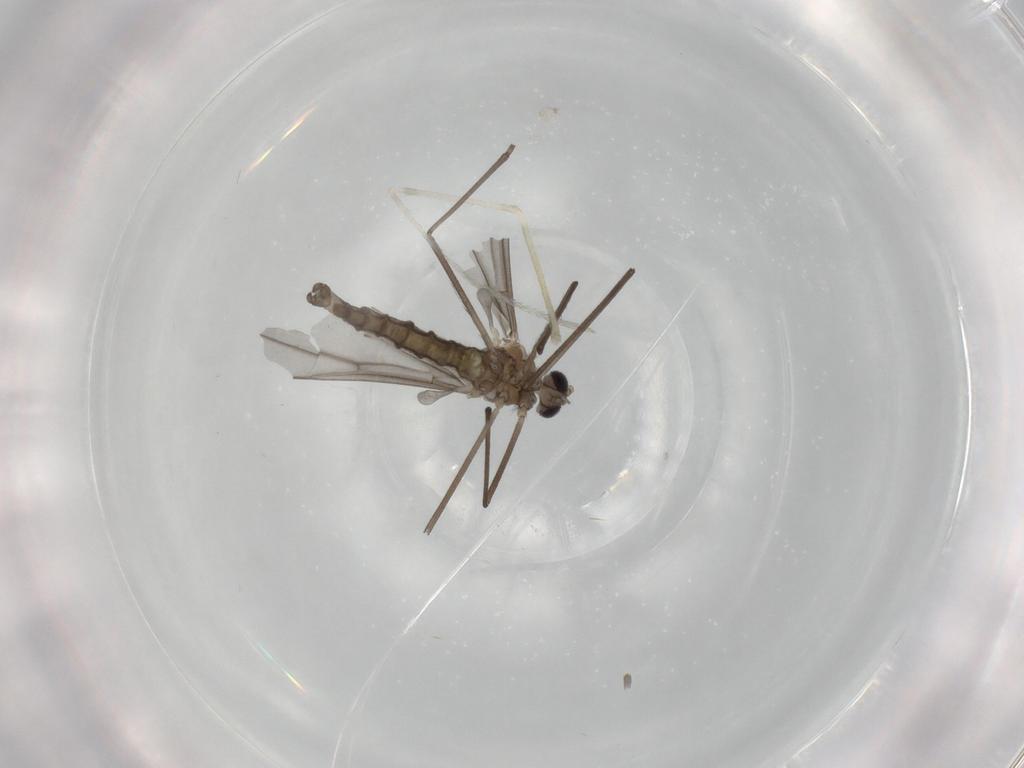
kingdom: Animalia
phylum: Arthropoda
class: Insecta
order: Diptera
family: Cecidomyiidae
